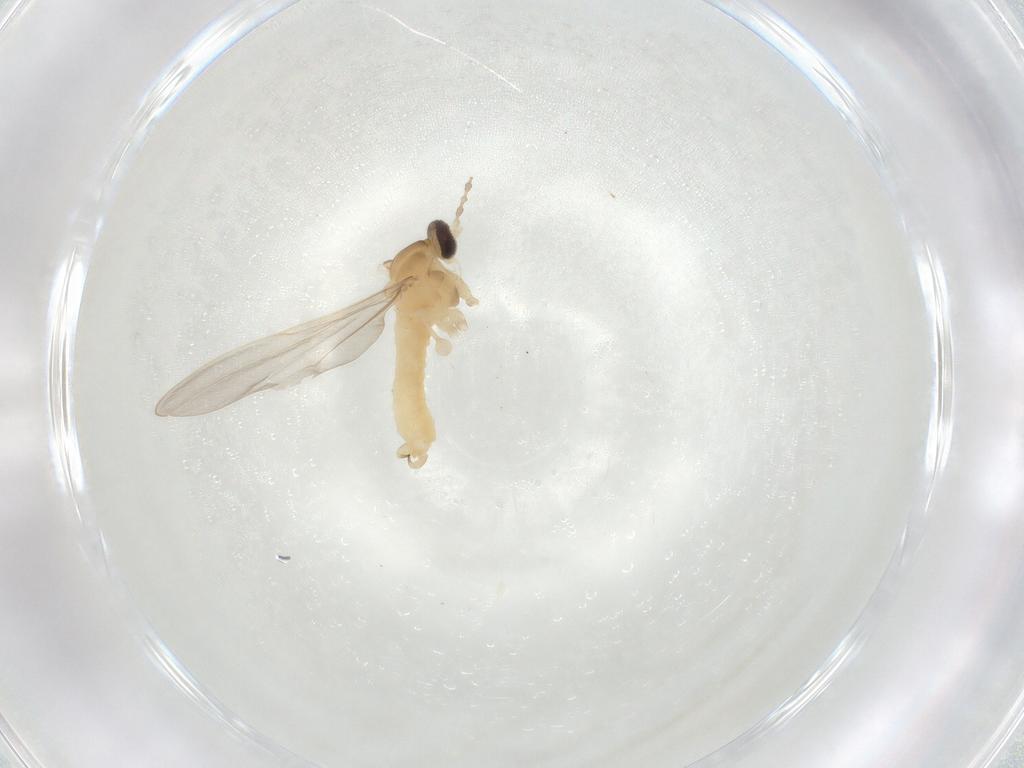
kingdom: Animalia
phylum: Arthropoda
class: Insecta
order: Diptera
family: Cecidomyiidae
